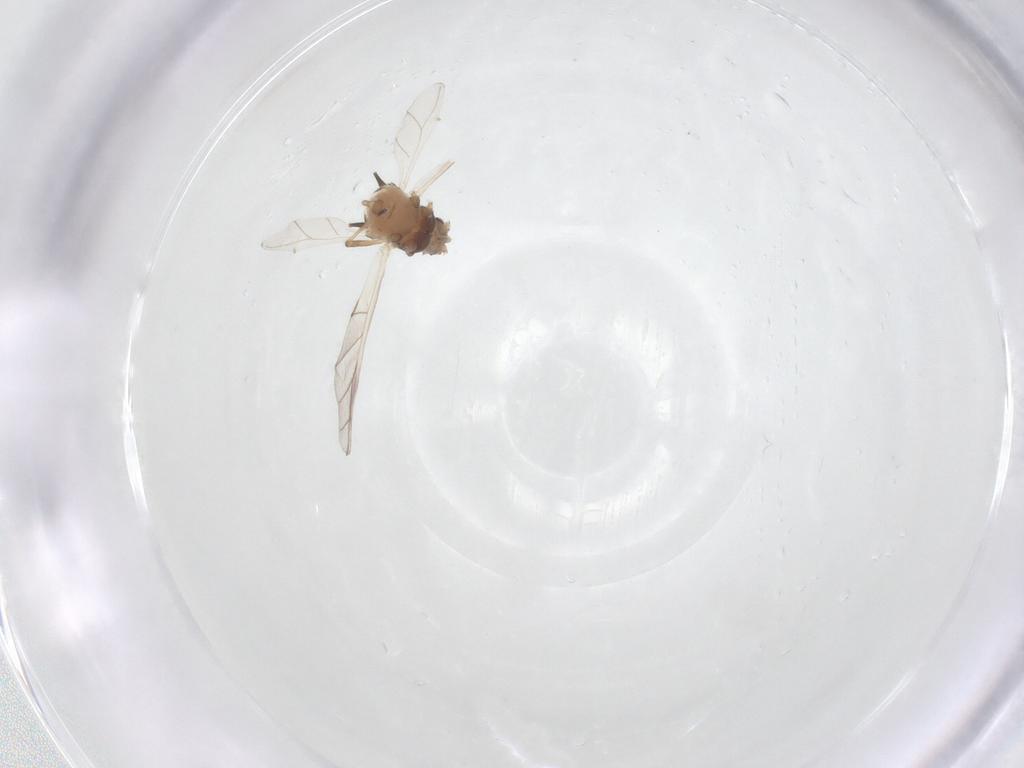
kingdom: Animalia
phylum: Arthropoda
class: Insecta
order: Hemiptera
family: Aphididae
